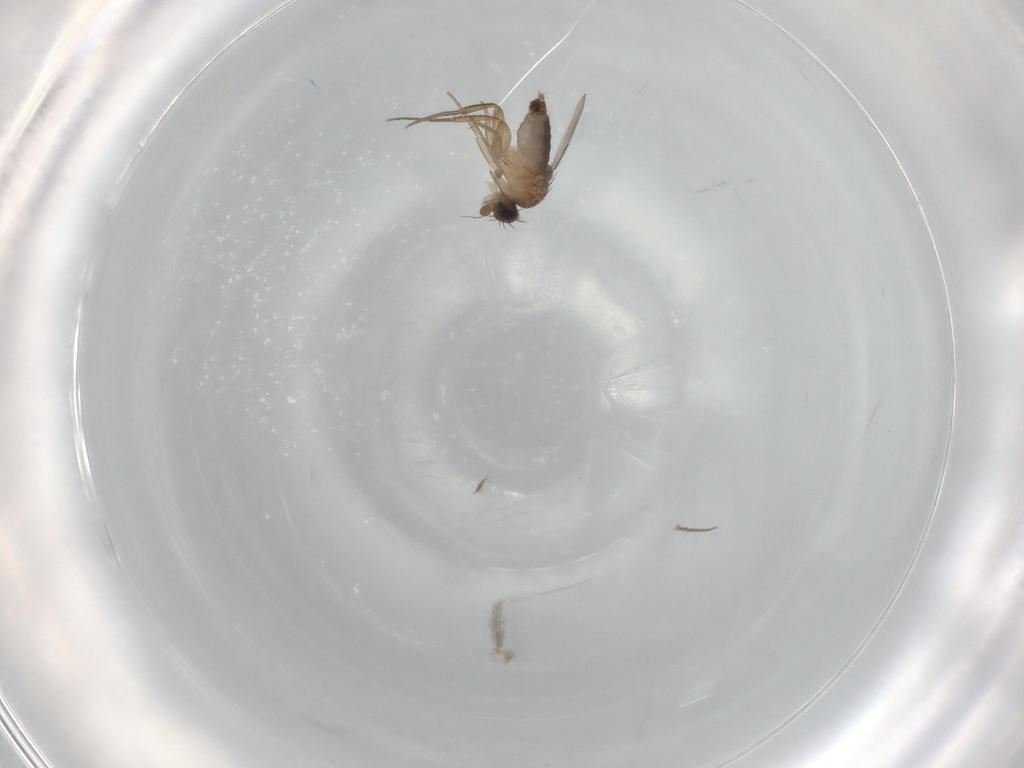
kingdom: Animalia
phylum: Arthropoda
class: Insecta
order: Diptera
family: Phoridae
